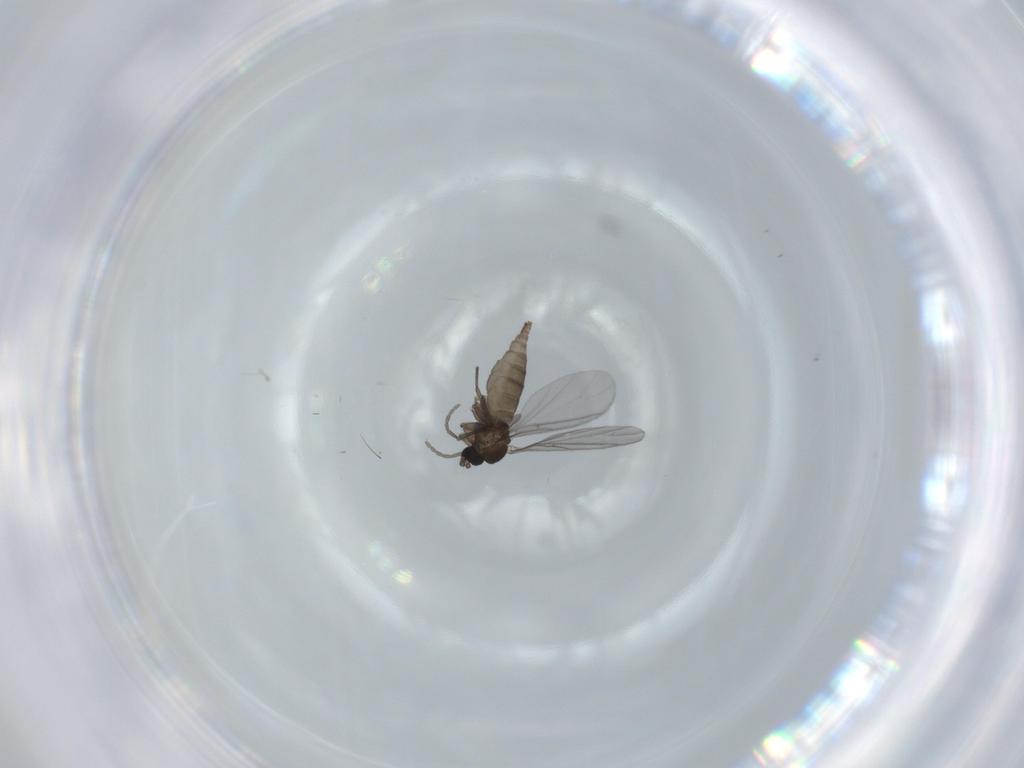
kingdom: Animalia
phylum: Arthropoda
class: Insecta
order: Diptera
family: Sciaridae
